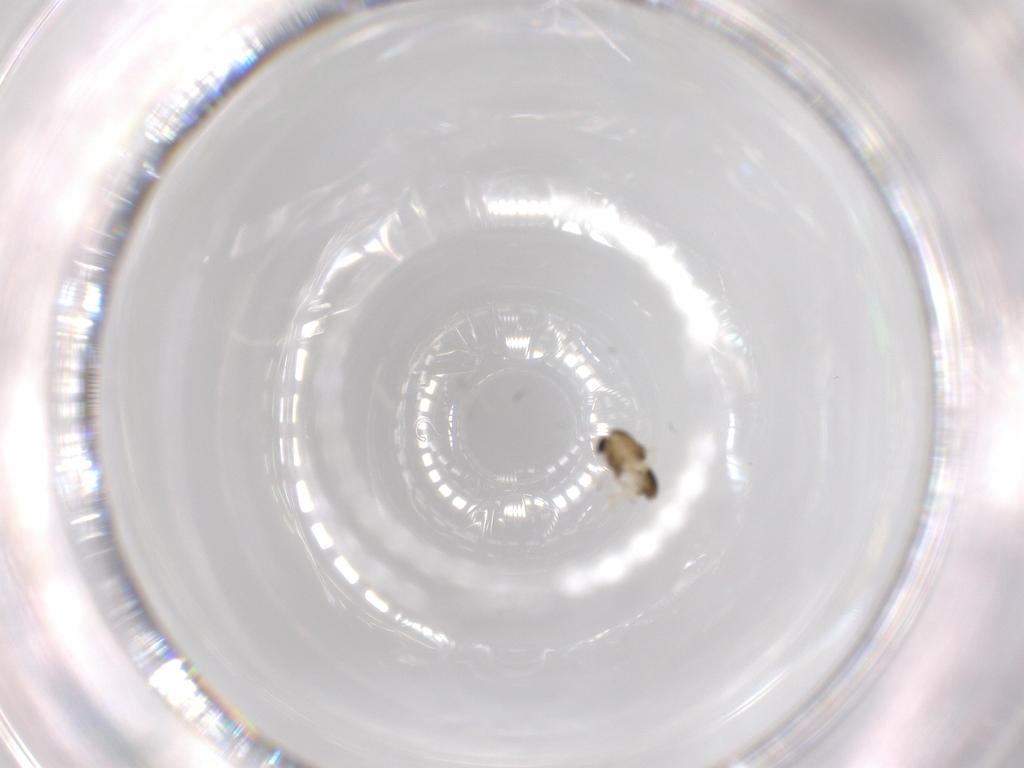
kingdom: Animalia
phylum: Arthropoda
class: Insecta
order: Diptera
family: Chironomidae
